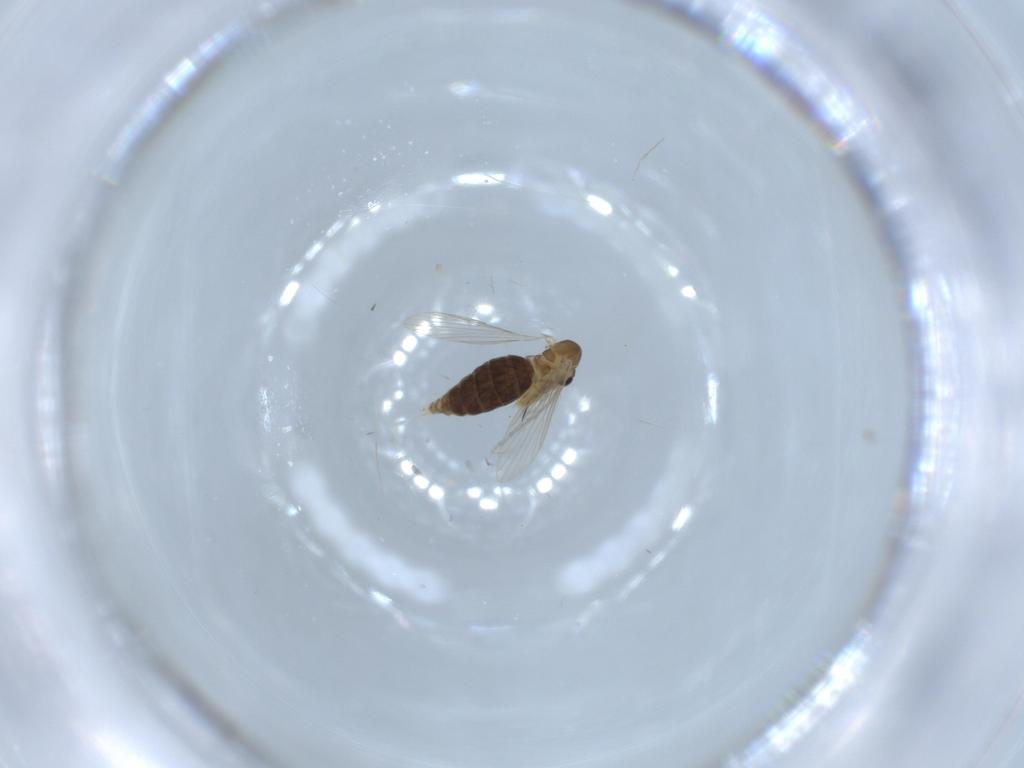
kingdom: Animalia
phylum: Arthropoda
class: Insecta
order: Diptera
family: Psychodidae
